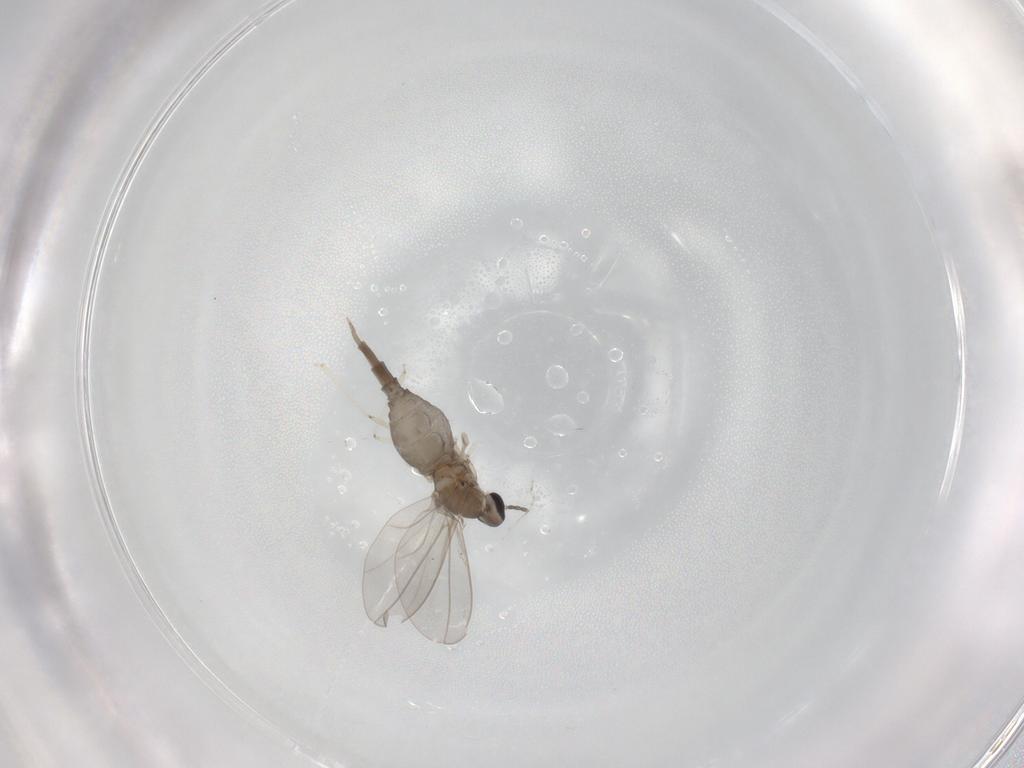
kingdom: Animalia
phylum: Arthropoda
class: Insecta
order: Diptera
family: Cecidomyiidae
